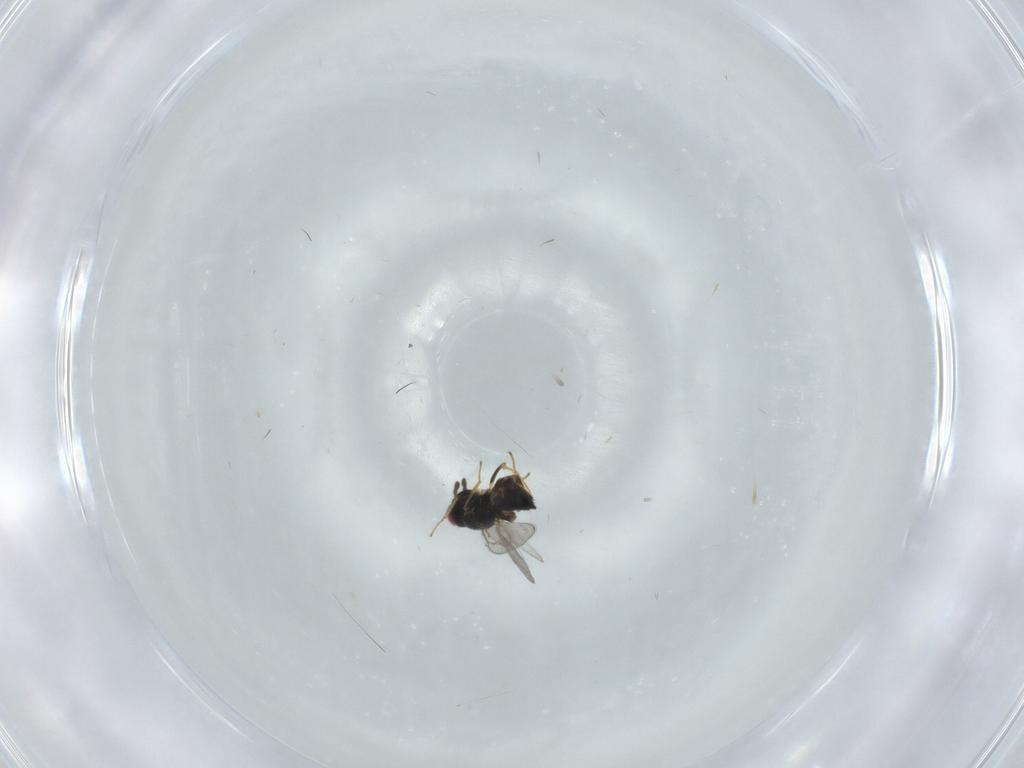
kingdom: Animalia
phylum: Arthropoda
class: Insecta
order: Hymenoptera
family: Eulophidae
